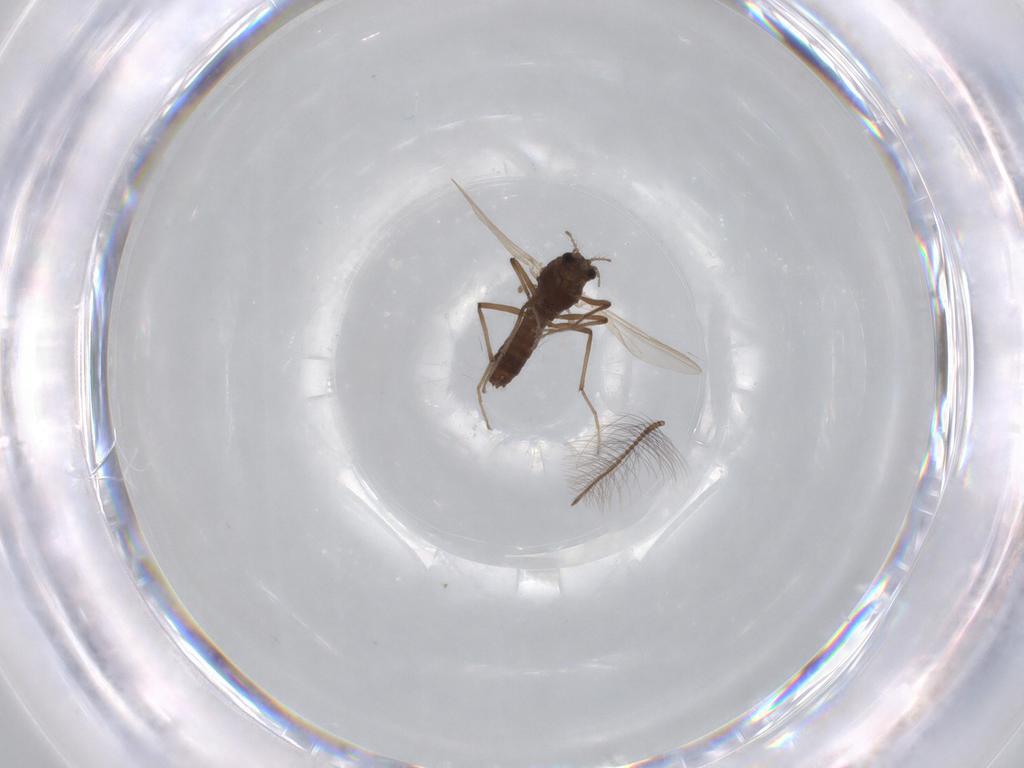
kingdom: Animalia
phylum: Arthropoda
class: Insecta
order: Diptera
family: Chironomidae
